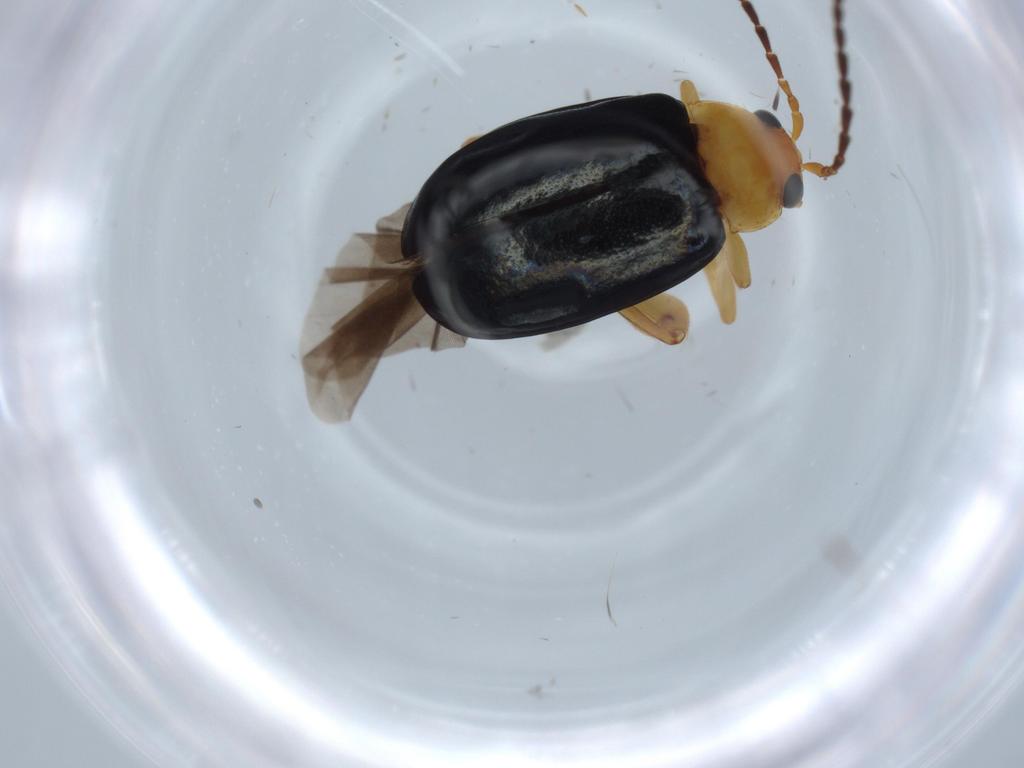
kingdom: Animalia
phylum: Arthropoda
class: Insecta
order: Coleoptera
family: Chrysomelidae
